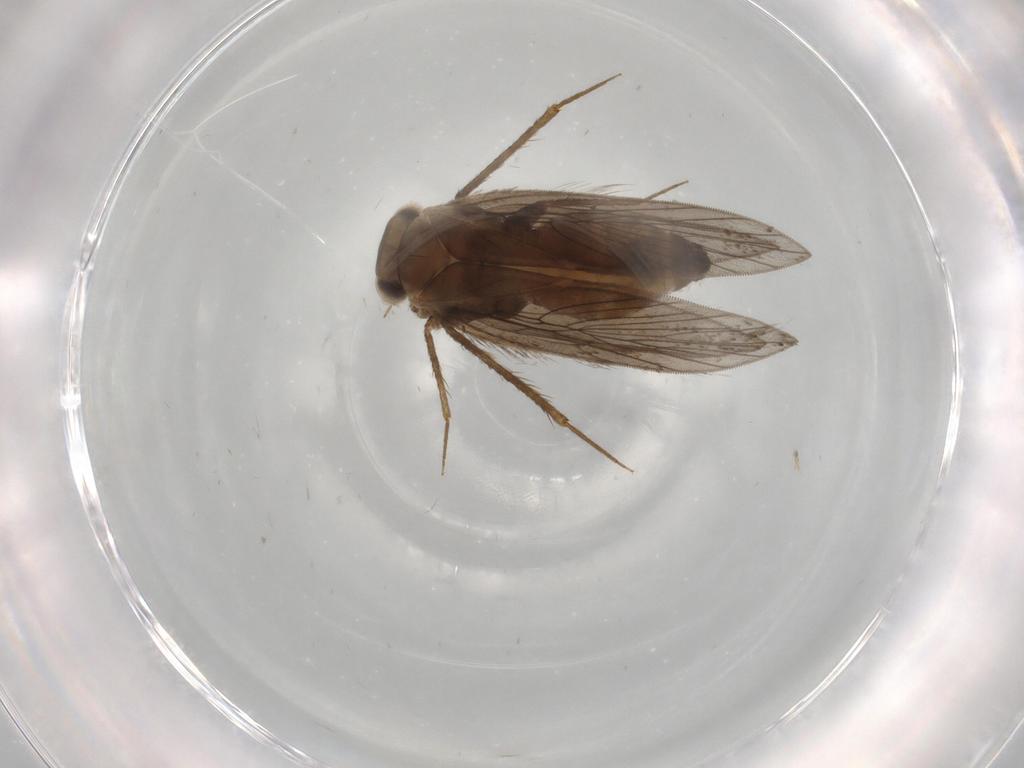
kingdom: Animalia
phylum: Arthropoda
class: Insecta
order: Psocodea
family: Lepidopsocidae
